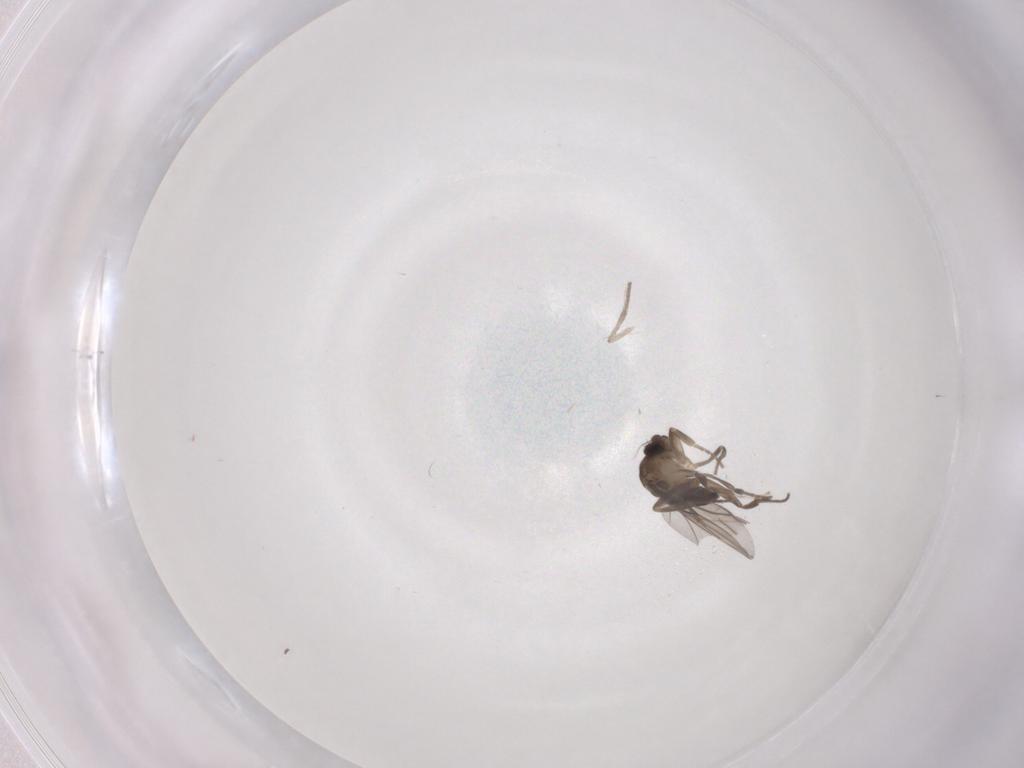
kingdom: Animalia
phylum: Arthropoda
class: Insecta
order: Diptera
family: Psychodidae
